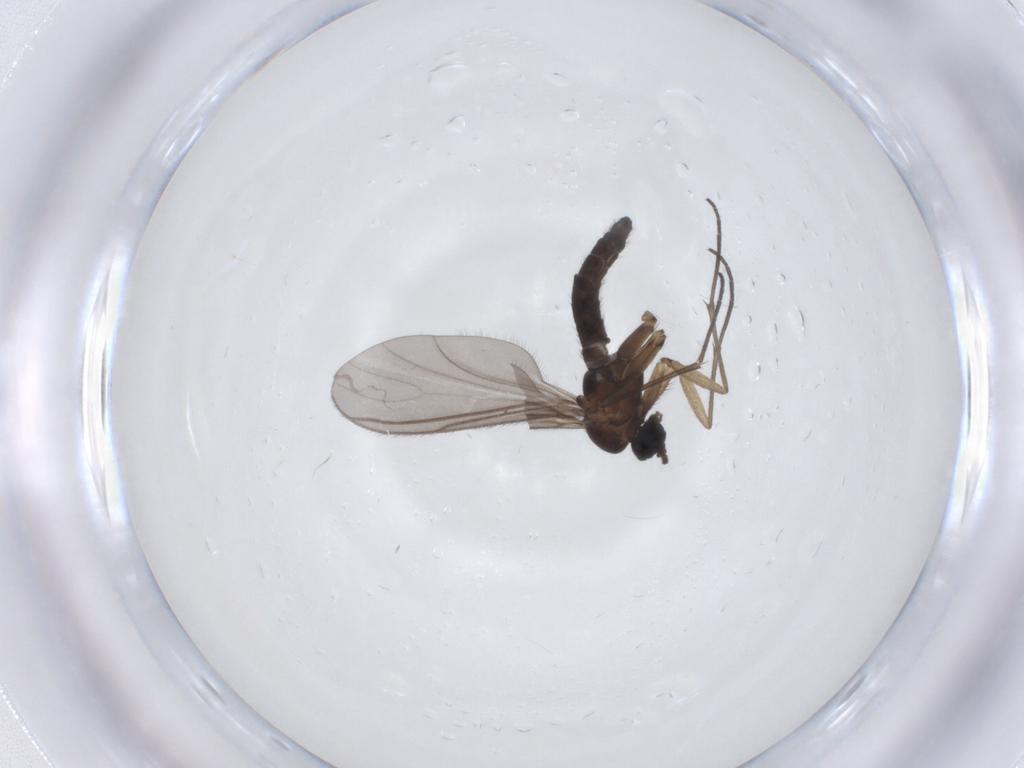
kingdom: Animalia
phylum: Arthropoda
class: Insecta
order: Diptera
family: Sciaridae
